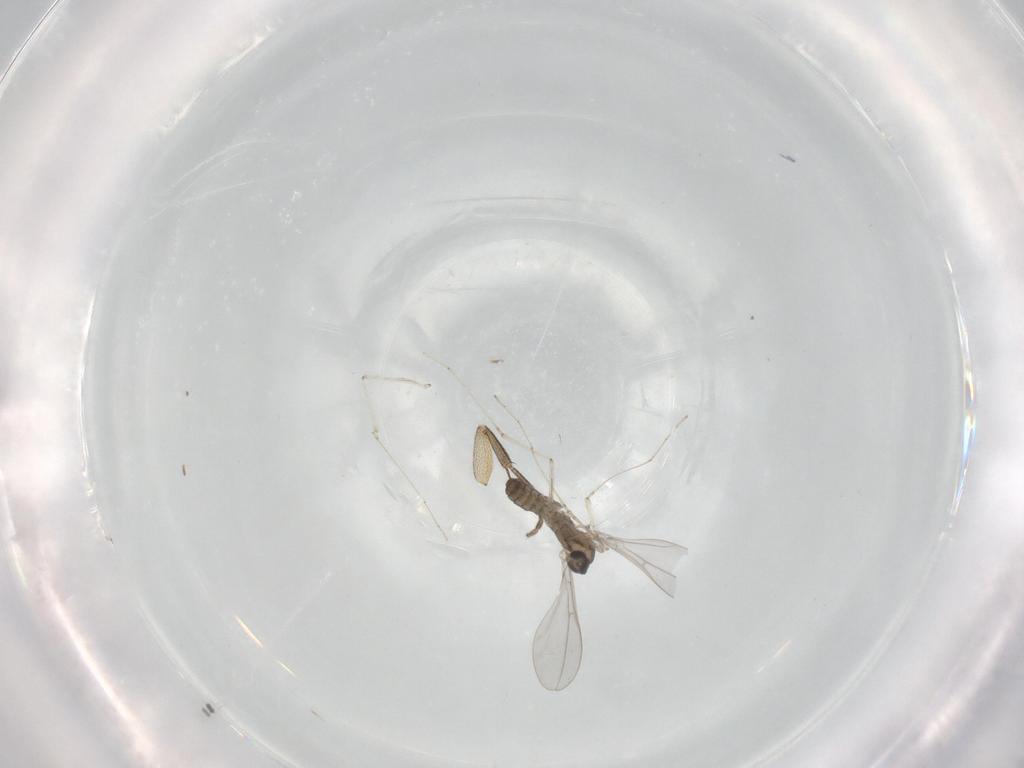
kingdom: Animalia
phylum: Arthropoda
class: Insecta
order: Diptera
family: Cecidomyiidae
